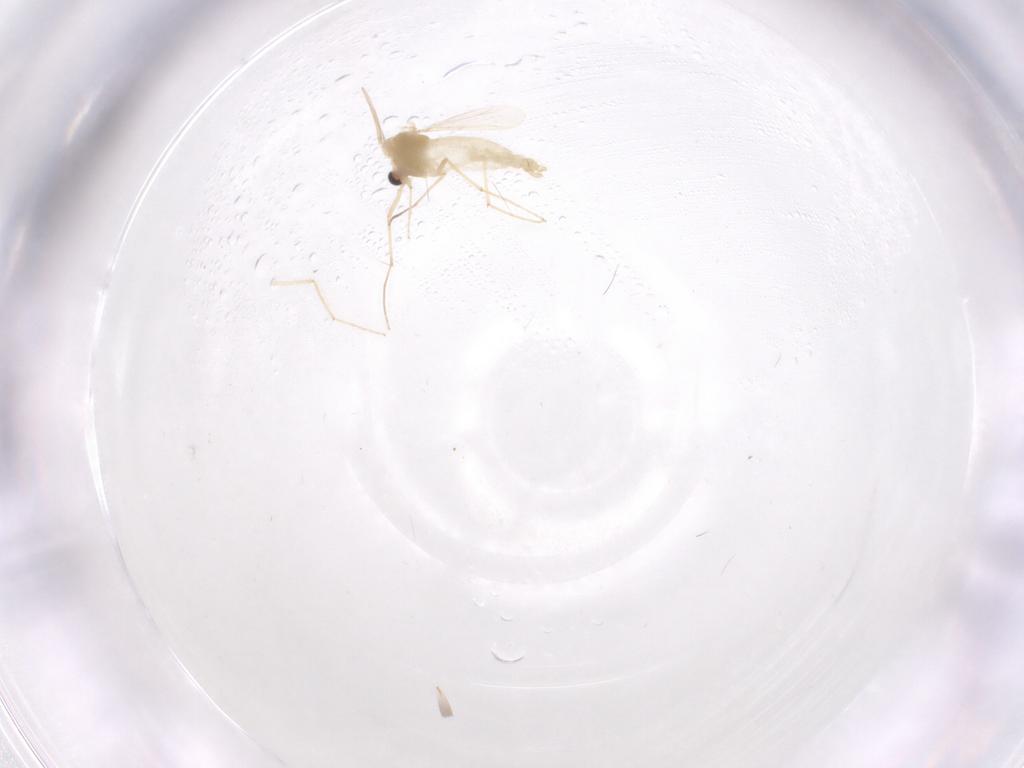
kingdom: Animalia
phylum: Arthropoda
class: Insecta
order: Diptera
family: Chironomidae
